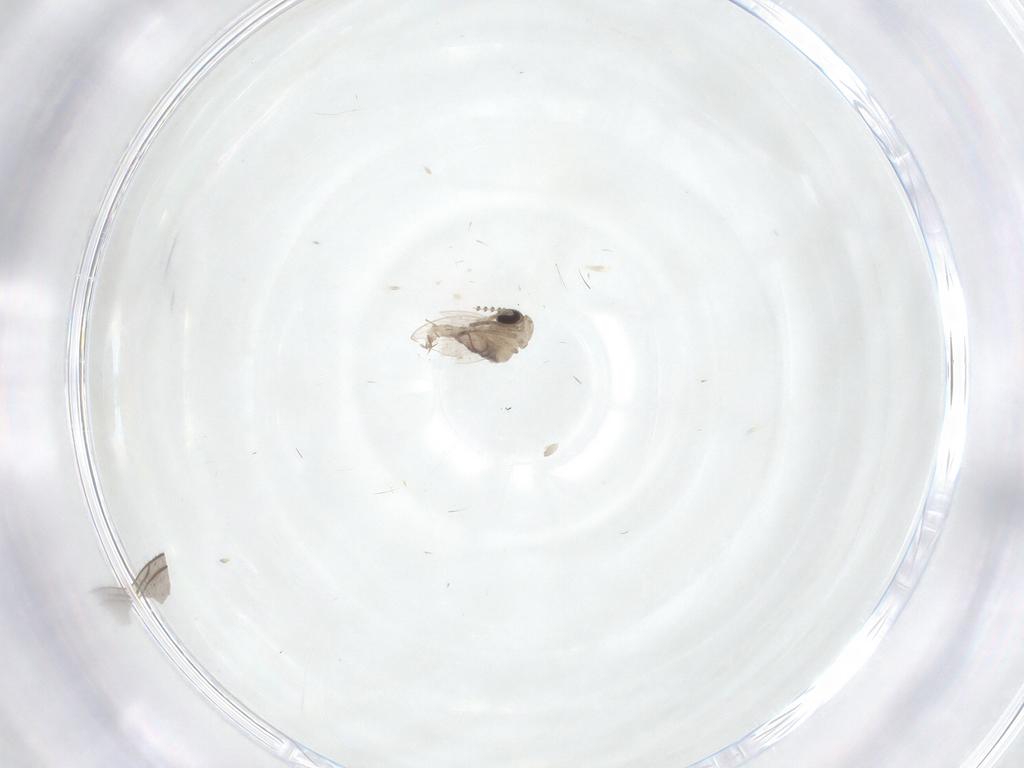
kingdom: Animalia
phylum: Arthropoda
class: Insecta
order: Diptera
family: Psychodidae
